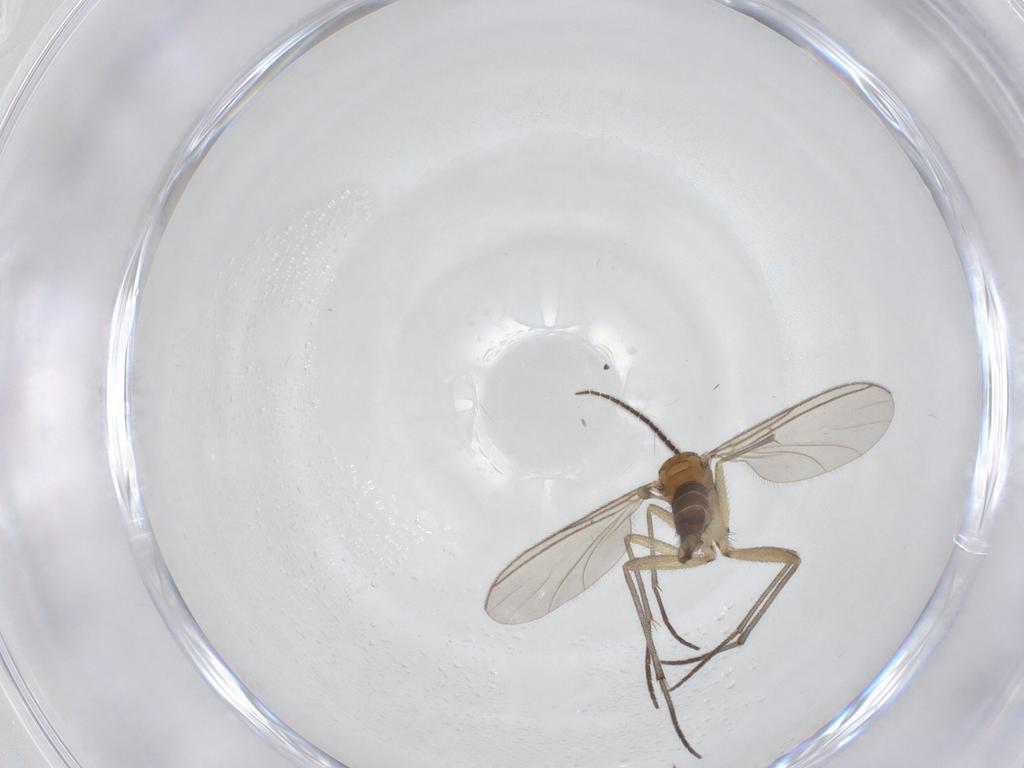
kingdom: Animalia
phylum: Arthropoda
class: Insecta
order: Diptera
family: Sciaridae
